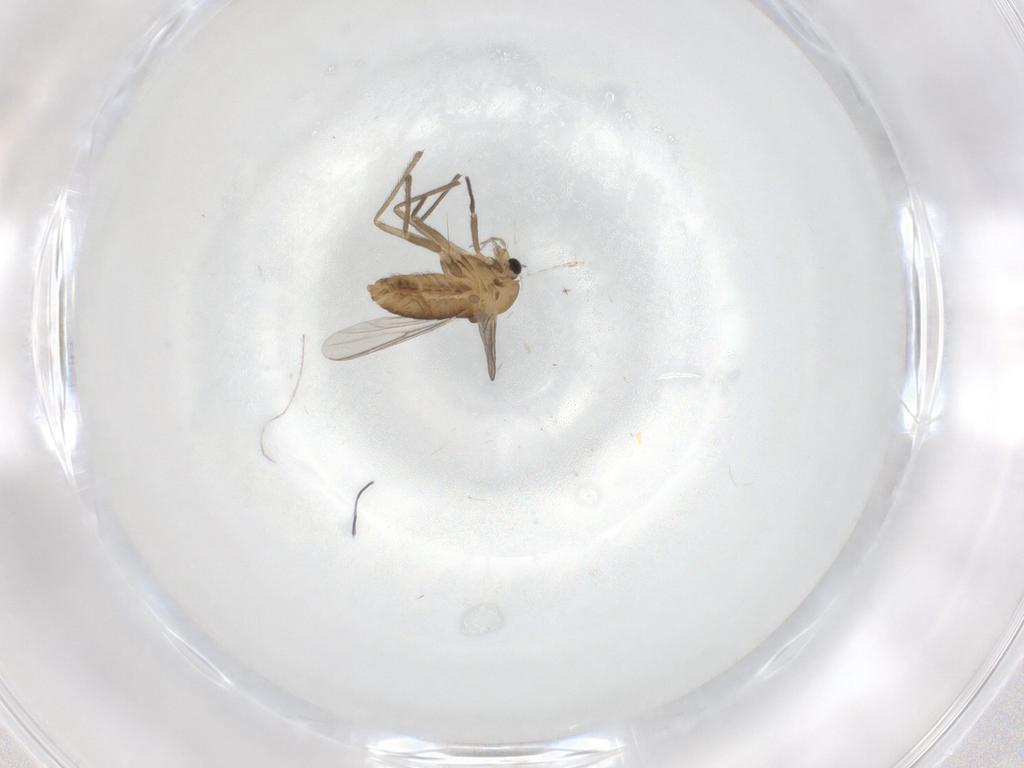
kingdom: Animalia
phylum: Arthropoda
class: Insecta
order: Diptera
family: Chironomidae
